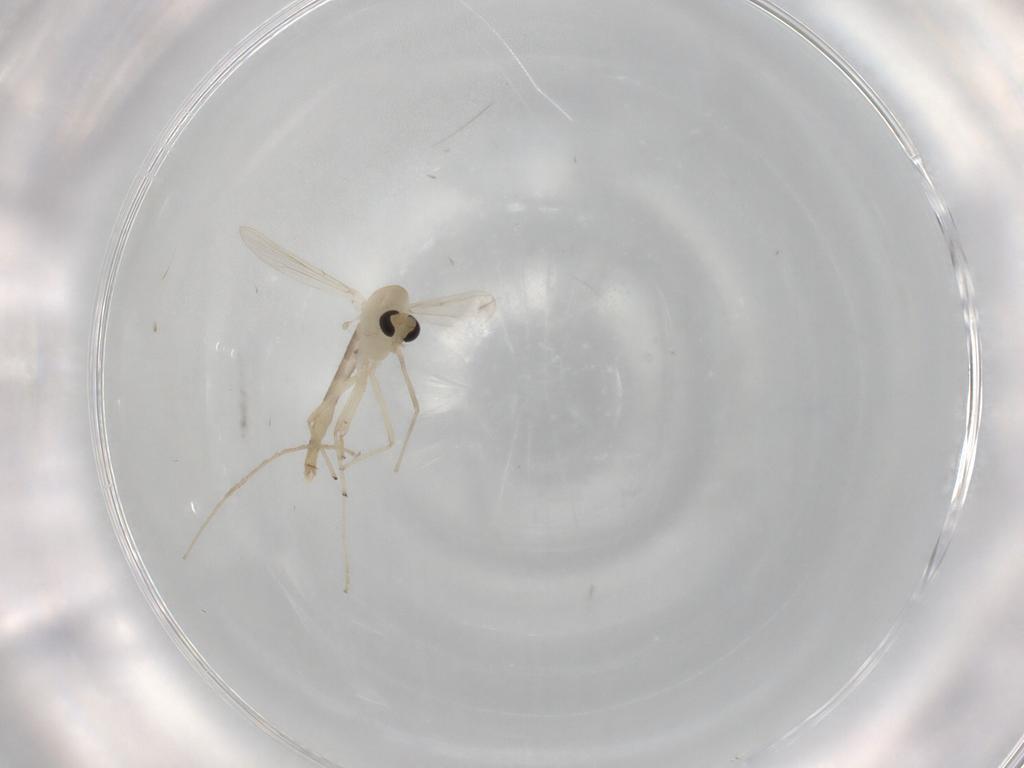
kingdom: Animalia
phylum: Arthropoda
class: Insecta
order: Diptera
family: Chironomidae
